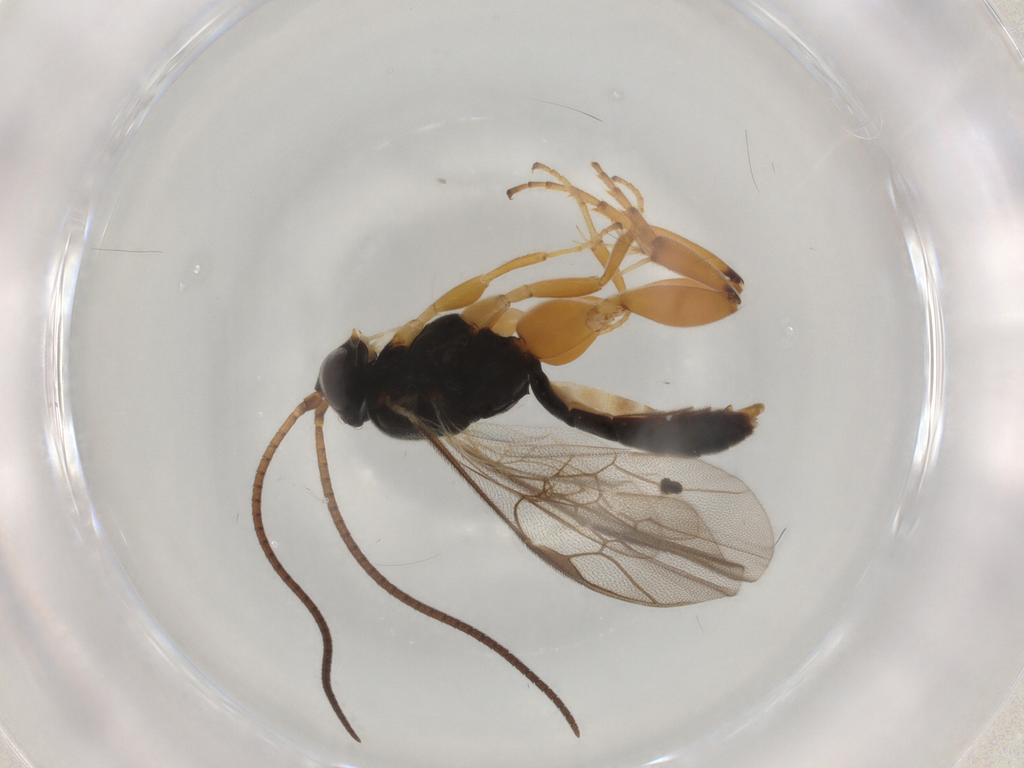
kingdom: Animalia
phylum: Arthropoda
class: Insecta
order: Hymenoptera
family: Ichneumonidae
